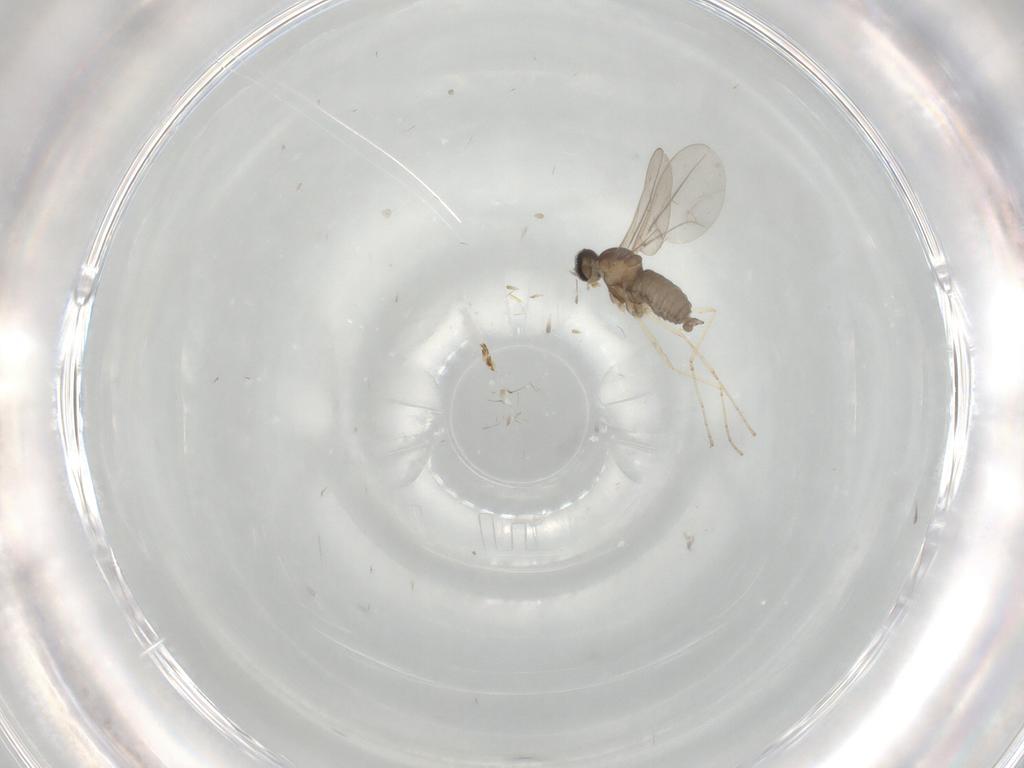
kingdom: Animalia
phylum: Arthropoda
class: Insecta
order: Diptera
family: Cecidomyiidae
